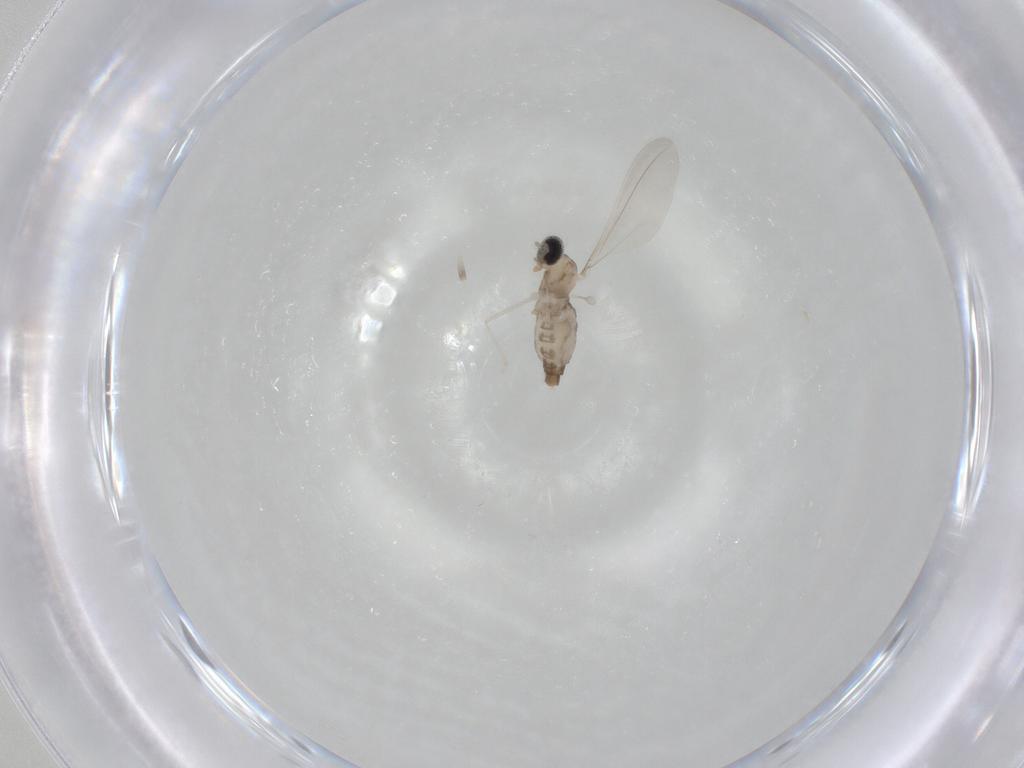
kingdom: Animalia
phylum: Arthropoda
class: Insecta
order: Diptera
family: Cecidomyiidae
